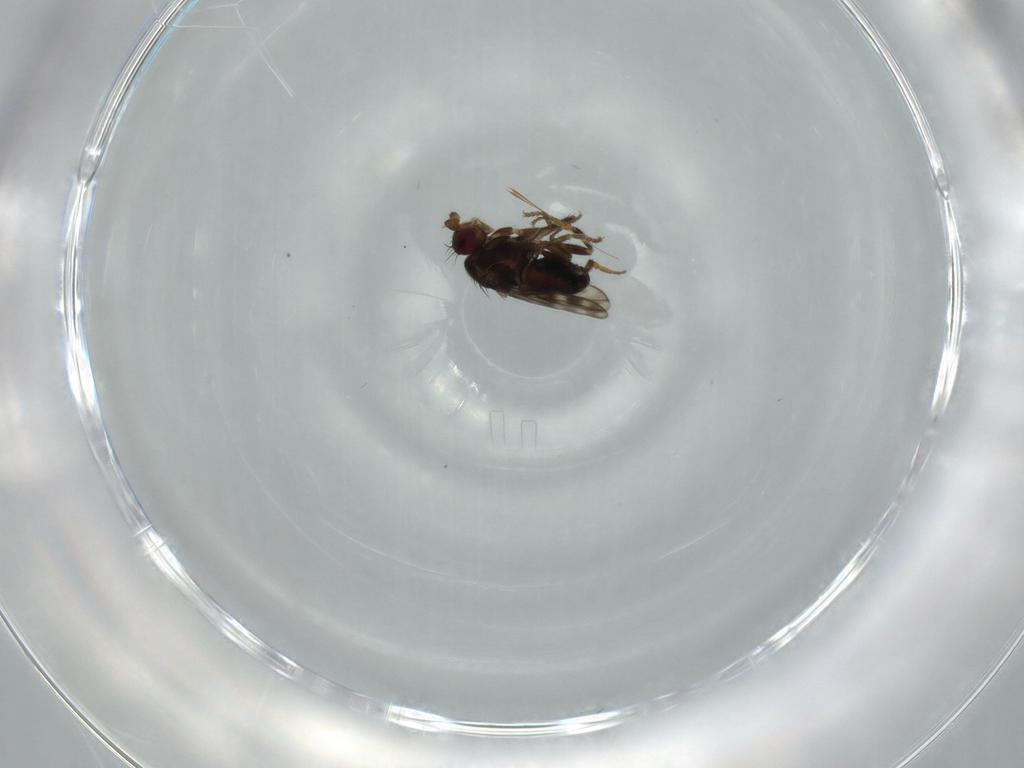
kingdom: Animalia
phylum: Arthropoda
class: Insecta
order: Diptera
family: Sphaeroceridae
